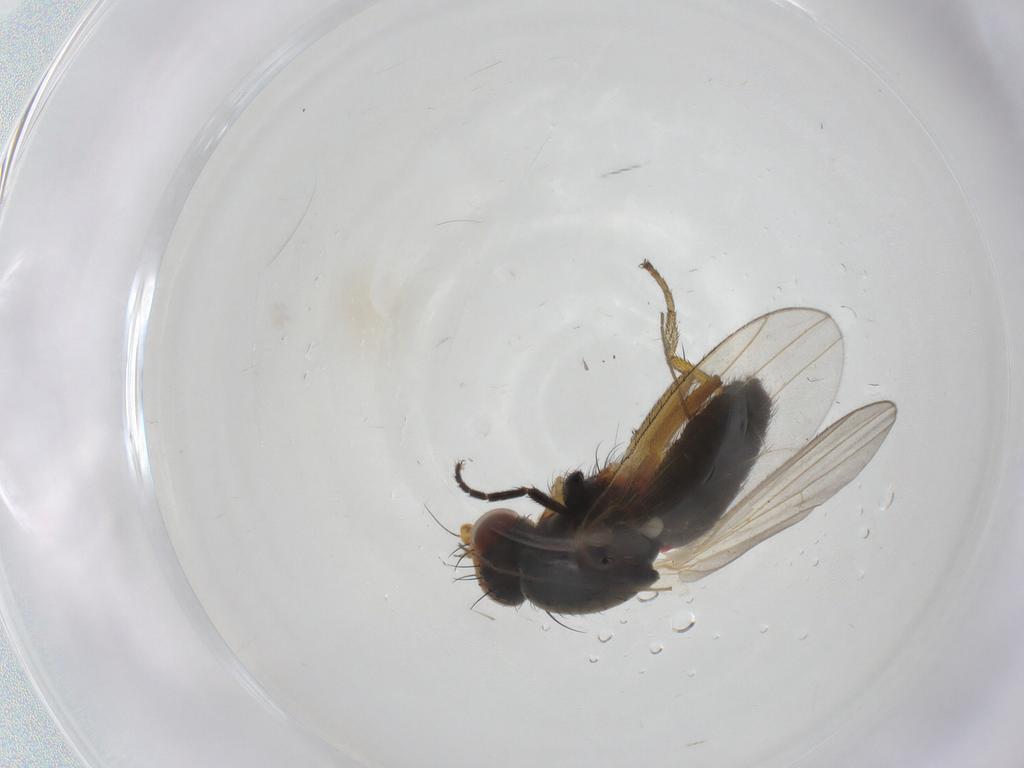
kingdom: Animalia
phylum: Arthropoda
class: Insecta
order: Diptera
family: Heleomyzidae
